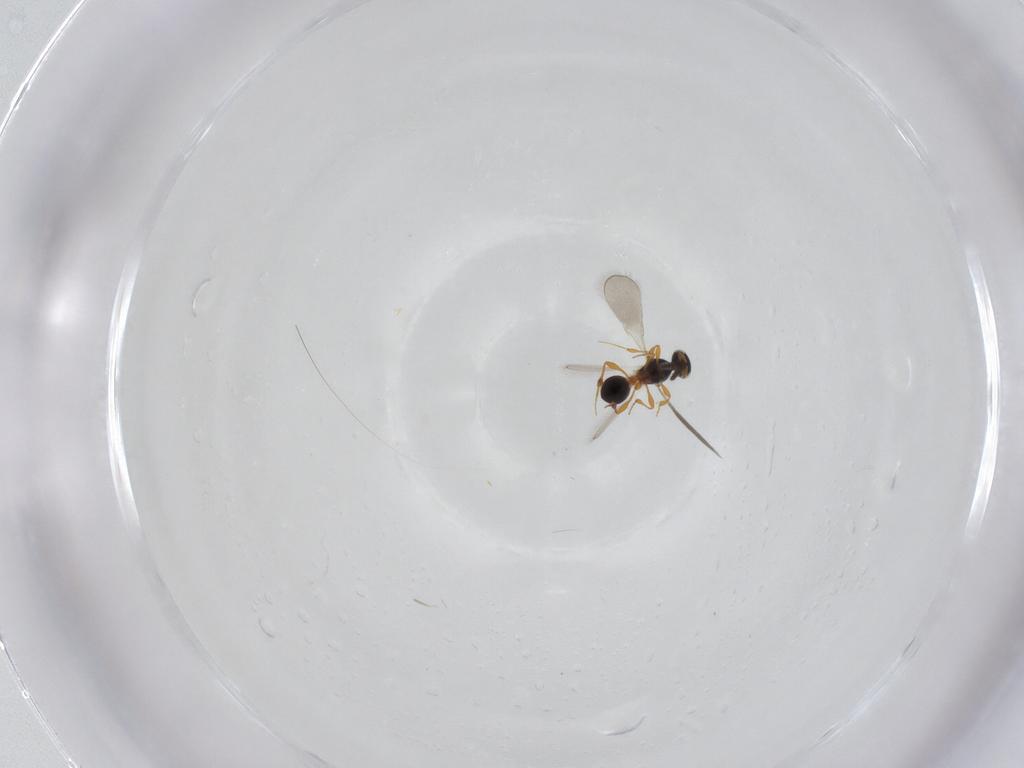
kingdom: Animalia
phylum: Arthropoda
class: Insecta
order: Hymenoptera
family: Platygastridae
